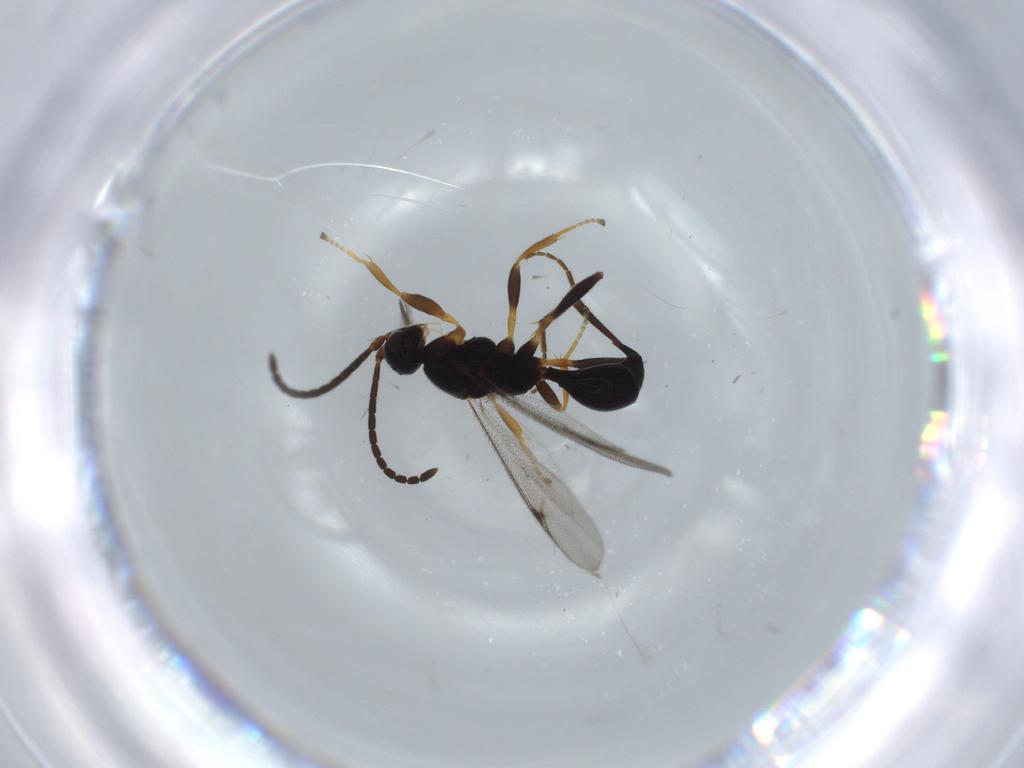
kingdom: Animalia
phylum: Arthropoda
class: Insecta
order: Hymenoptera
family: Proctotrupidae
